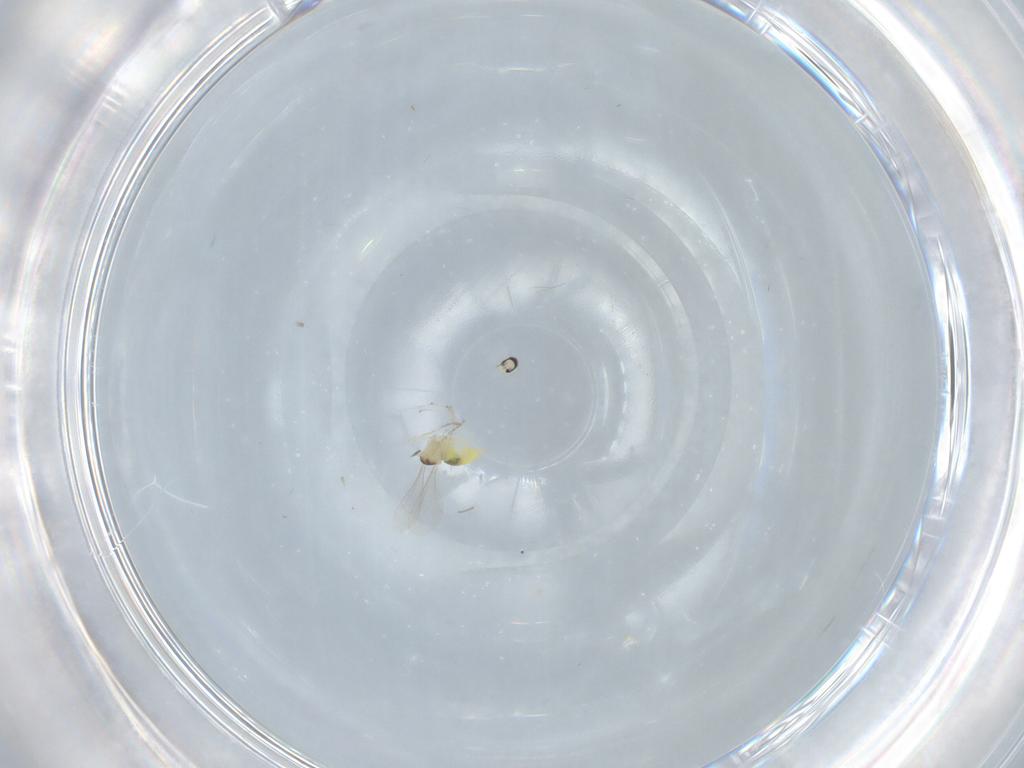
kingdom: Animalia
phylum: Arthropoda
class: Insecta
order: Diptera
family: Cecidomyiidae
